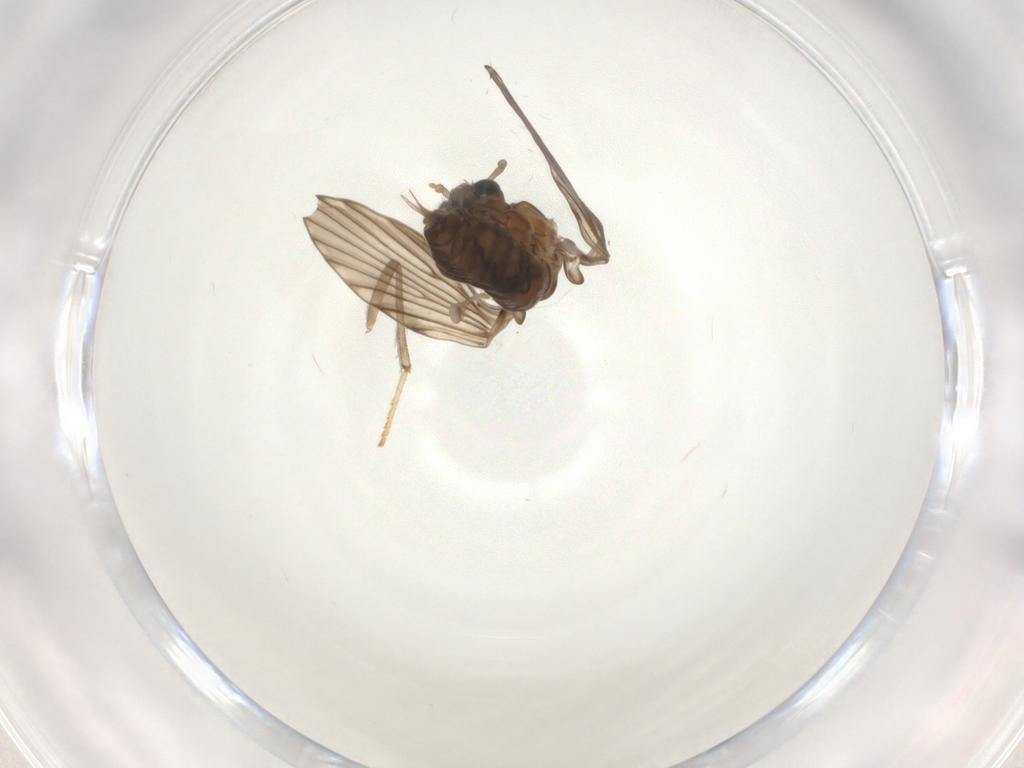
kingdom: Animalia
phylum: Arthropoda
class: Insecta
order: Diptera
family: Psychodidae
